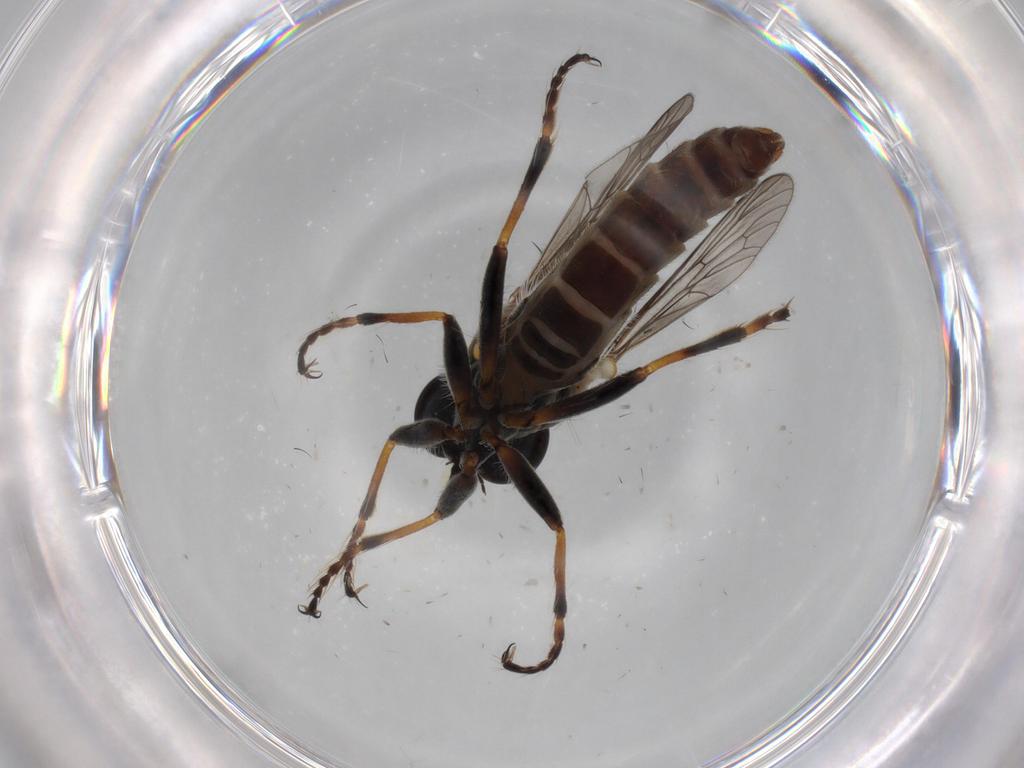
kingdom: Animalia
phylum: Arthropoda
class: Insecta
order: Diptera
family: Asilidae
